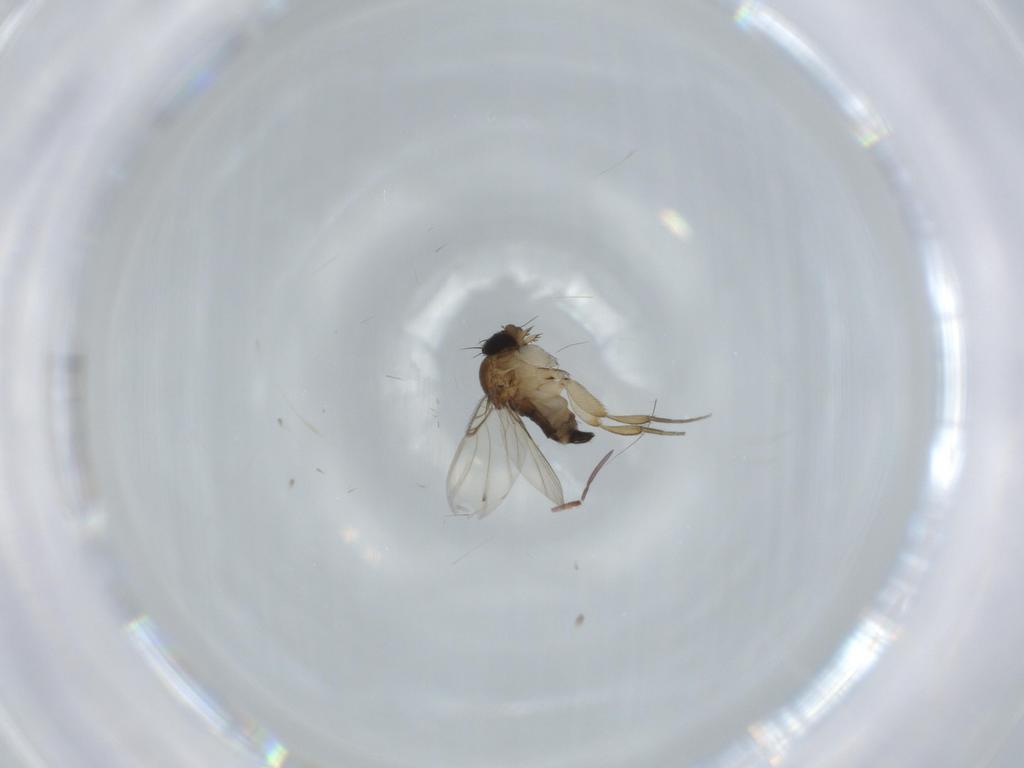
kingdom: Animalia
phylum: Arthropoda
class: Insecta
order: Diptera
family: Phoridae
